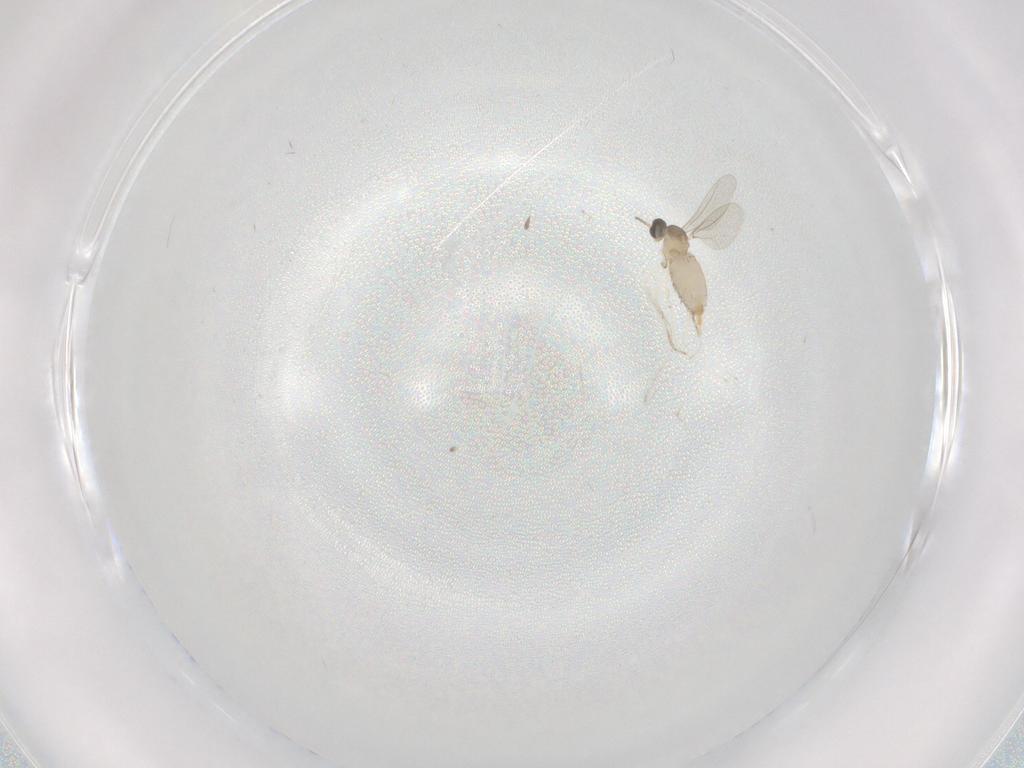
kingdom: Animalia
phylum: Arthropoda
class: Insecta
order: Diptera
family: Cecidomyiidae
